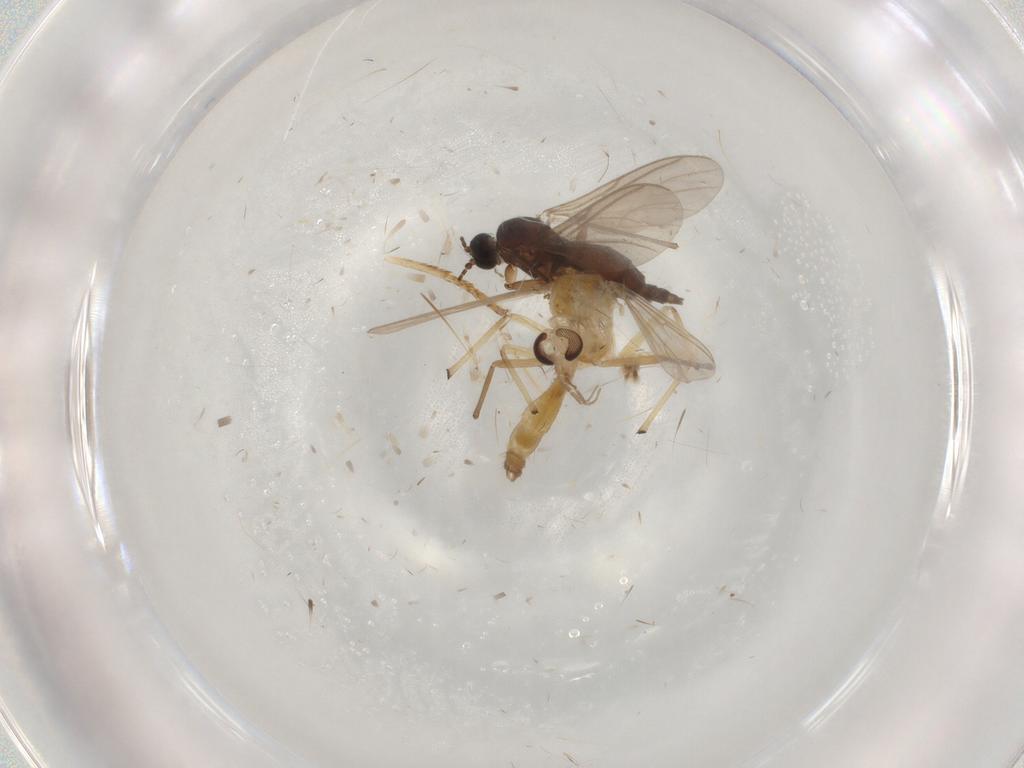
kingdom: Animalia
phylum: Arthropoda
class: Insecta
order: Diptera
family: Sciaridae
